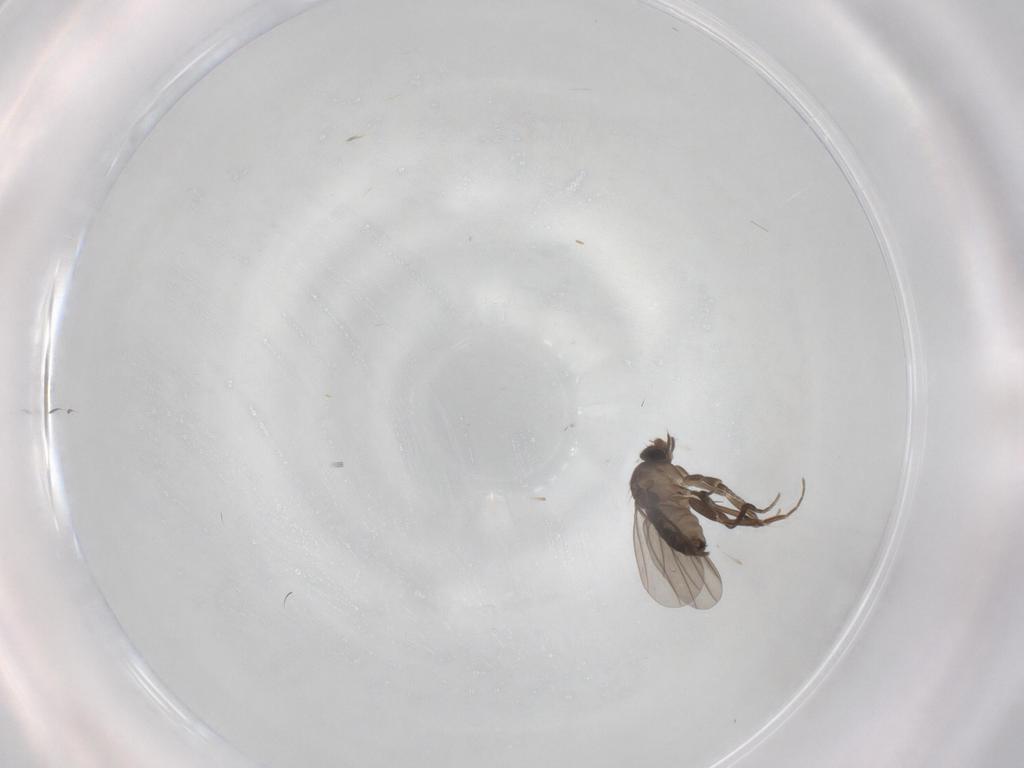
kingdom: Animalia
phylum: Arthropoda
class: Insecta
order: Diptera
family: Phoridae
